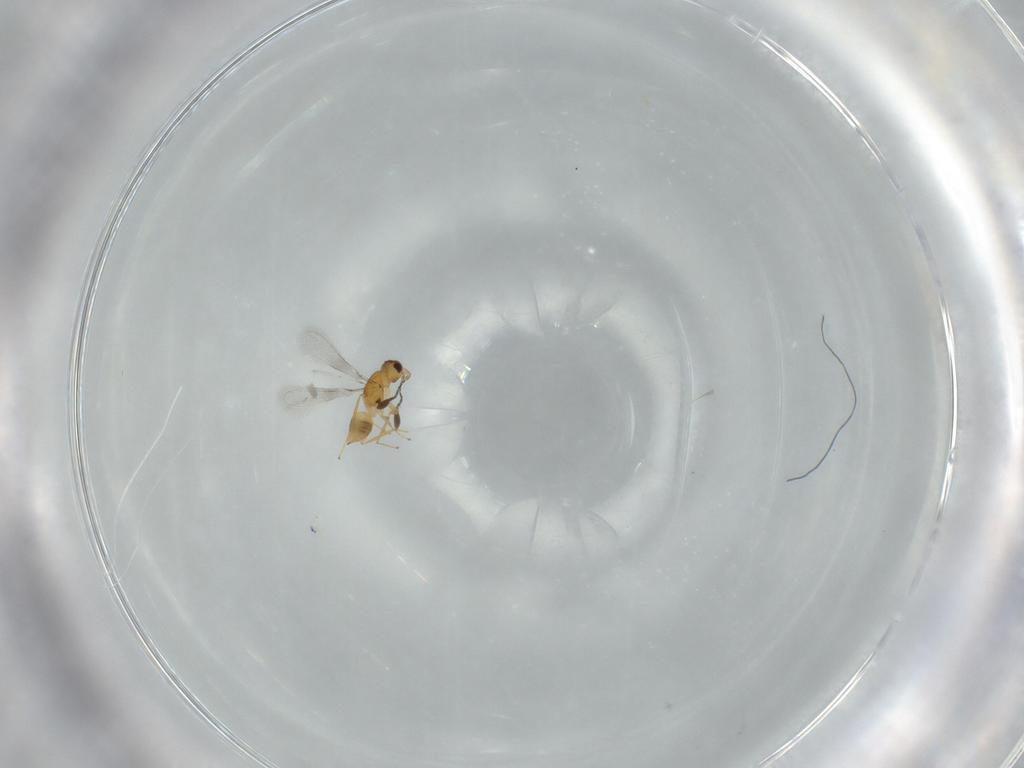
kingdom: Animalia
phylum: Arthropoda
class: Insecta
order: Hymenoptera
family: Mymaridae
